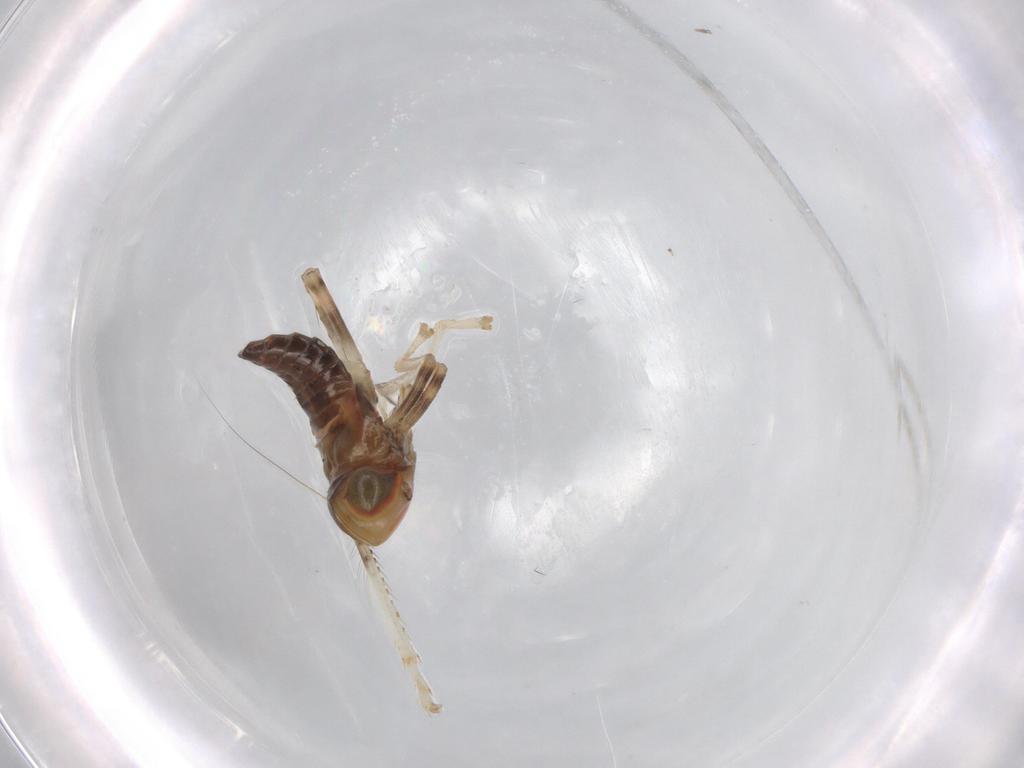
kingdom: Animalia
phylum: Arthropoda
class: Insecta
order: Hemiptera
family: Cicadellidae
